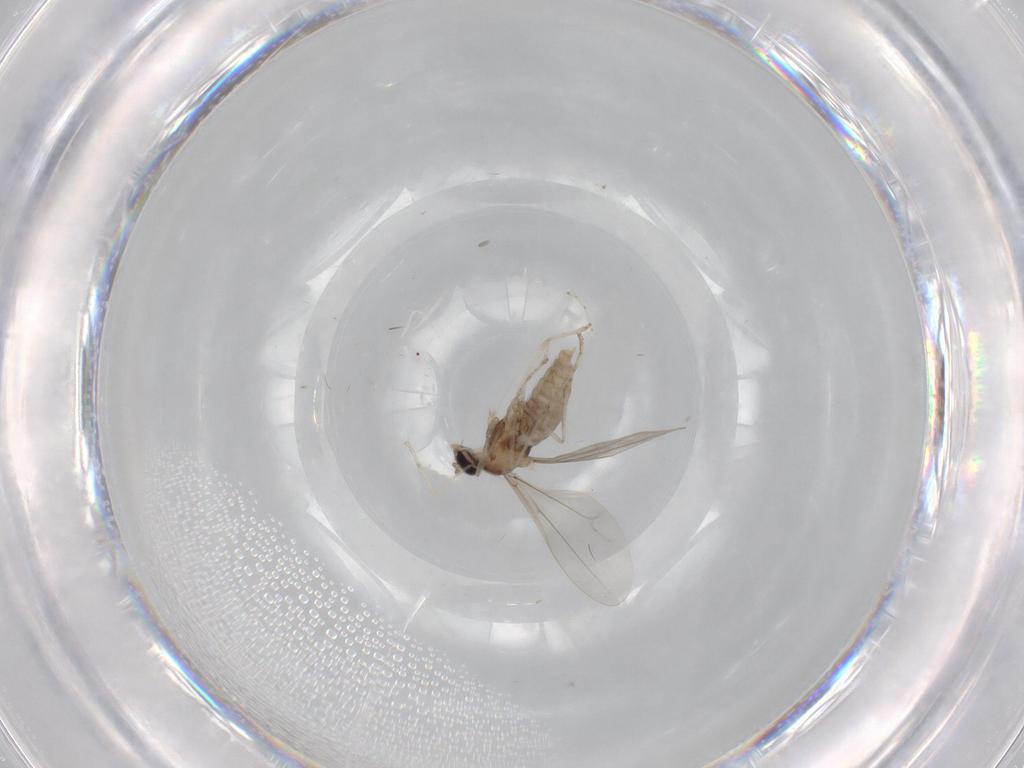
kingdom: Animalia
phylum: Arthropoda
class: Insecta
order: Diptera
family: Cecidomyiidae
